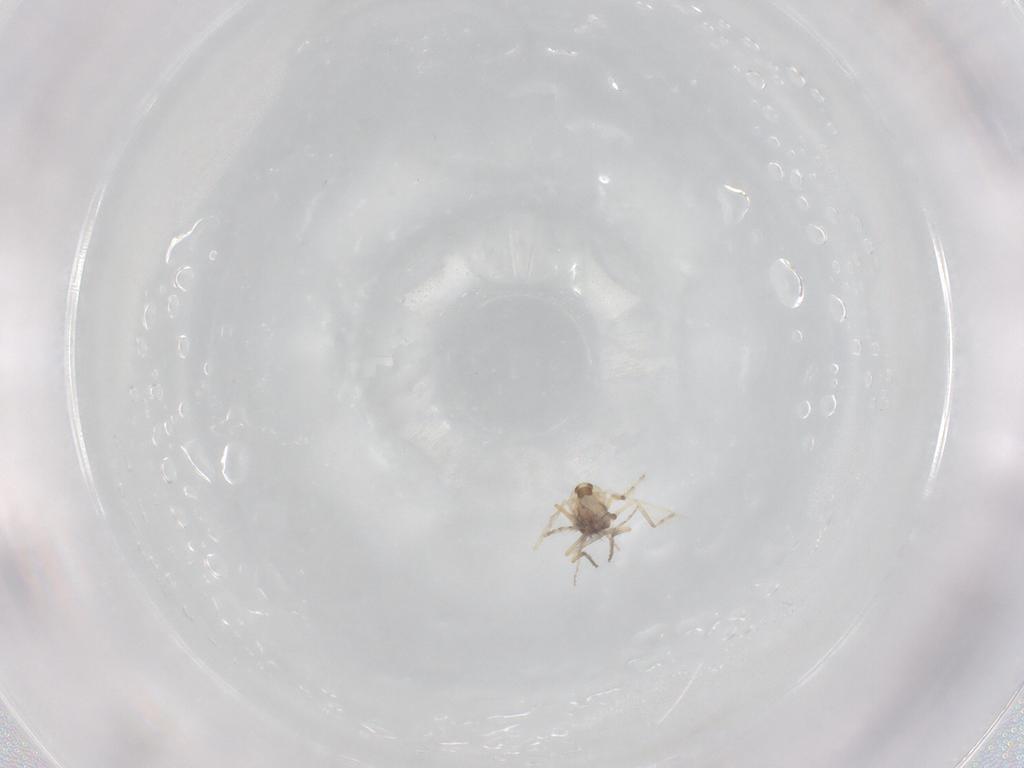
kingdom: Animalia
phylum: Arthropoda
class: Insecta
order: Diptera
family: Ceratopogonidae
